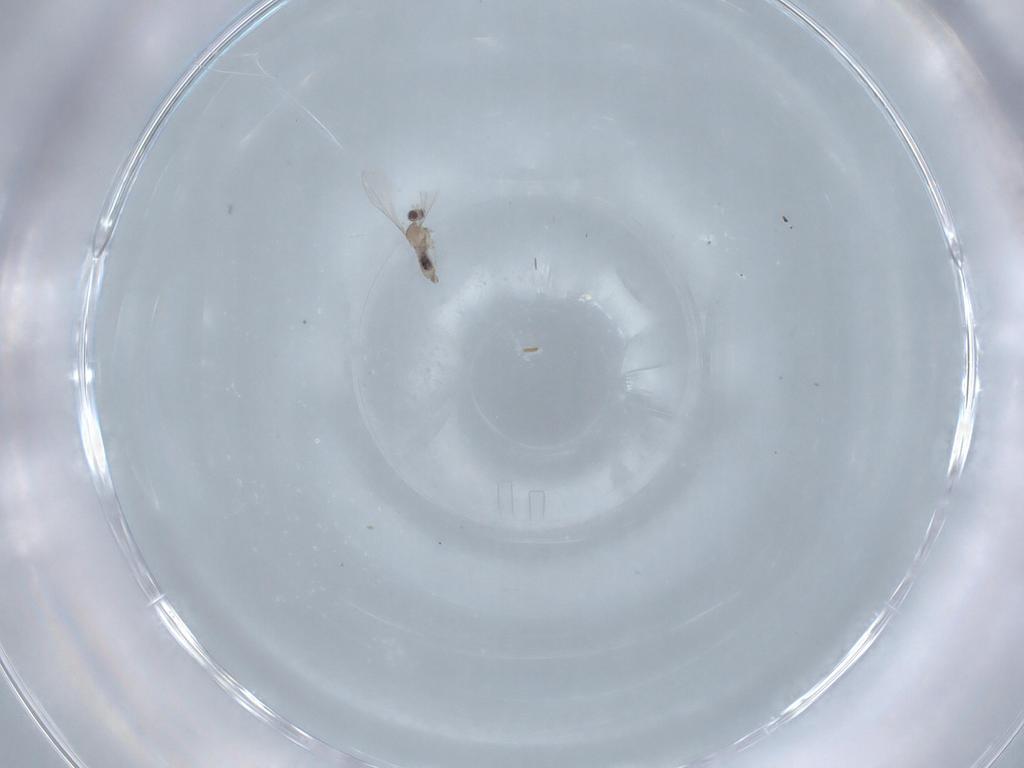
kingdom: Animalia
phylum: Arthropoda
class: Insecta
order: Diptera
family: Cecidomyiidae
